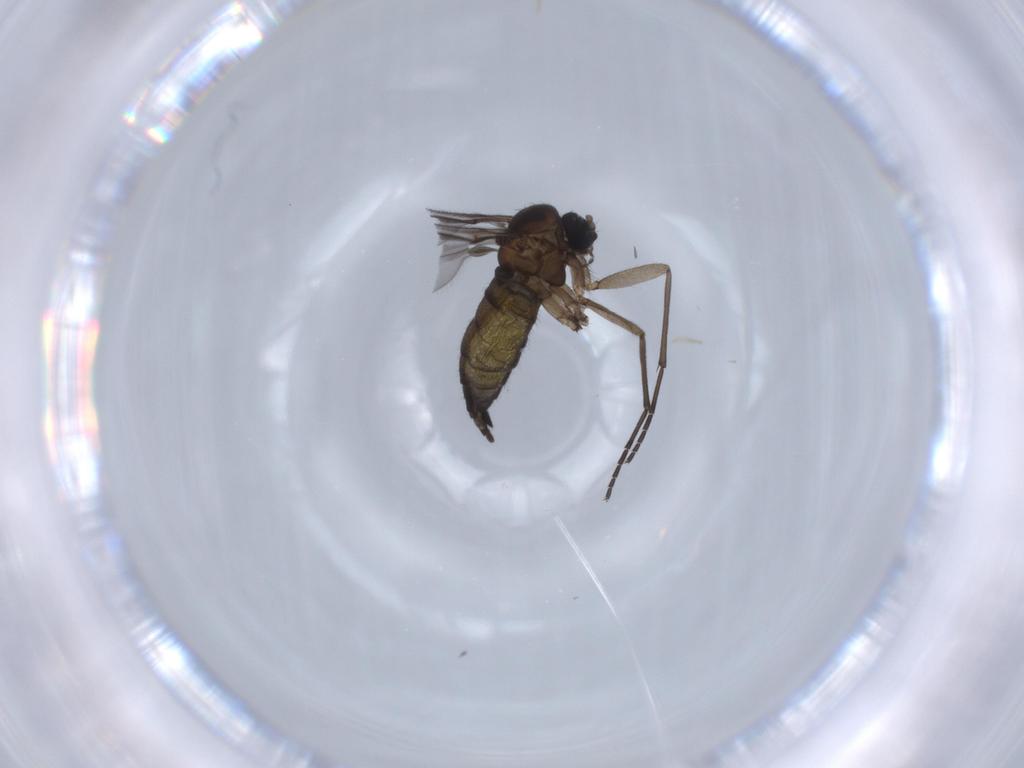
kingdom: Animalia
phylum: Arthropoda
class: Insecta
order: Diptera
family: Sciaridae
